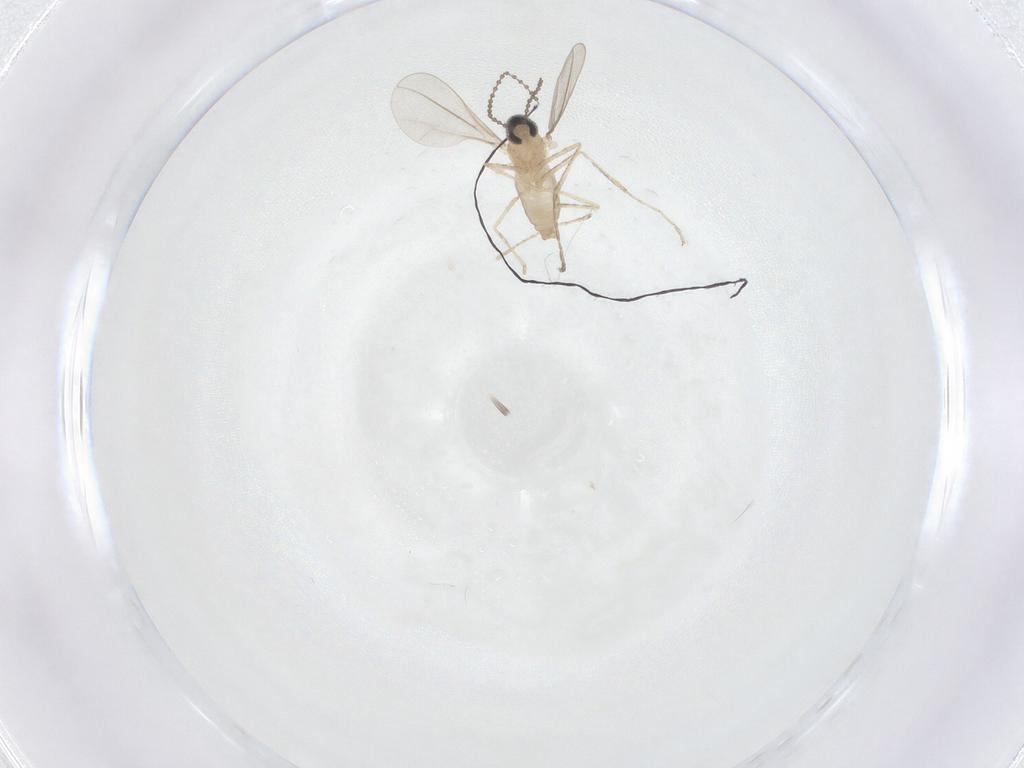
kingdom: Animalia
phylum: Arthropoda
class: Insecta
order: Diptera
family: Cecidomyiidae
